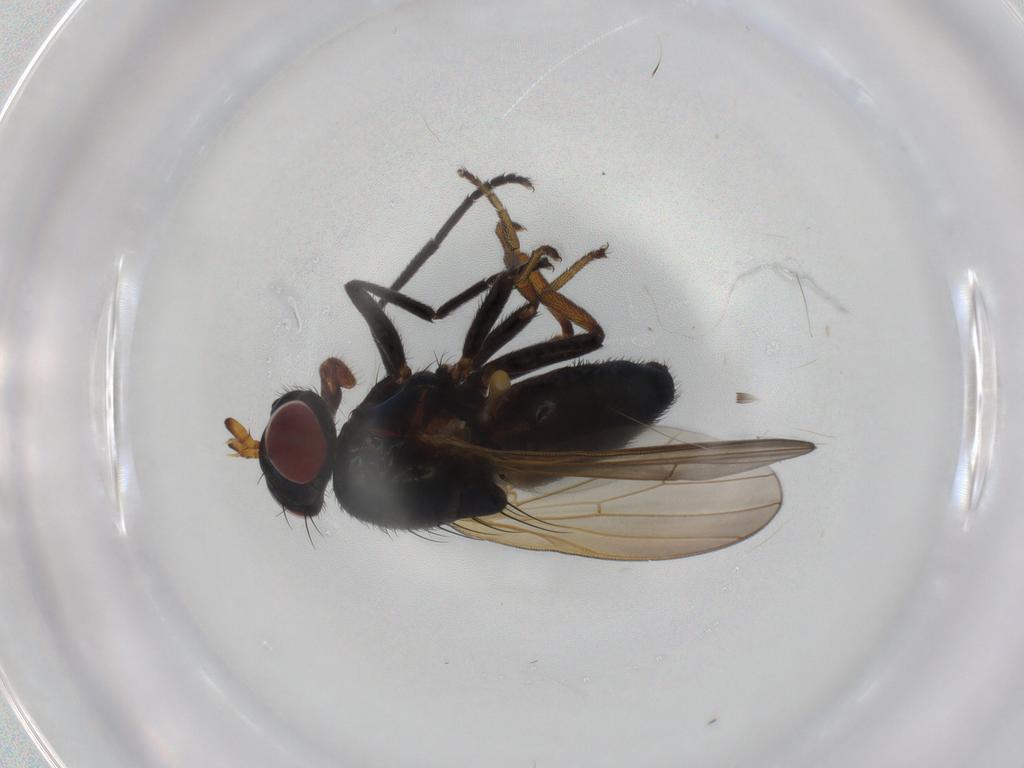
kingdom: Animalia
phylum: Arthropoda
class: Insecta
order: Diptera
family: Lauxaniidae
